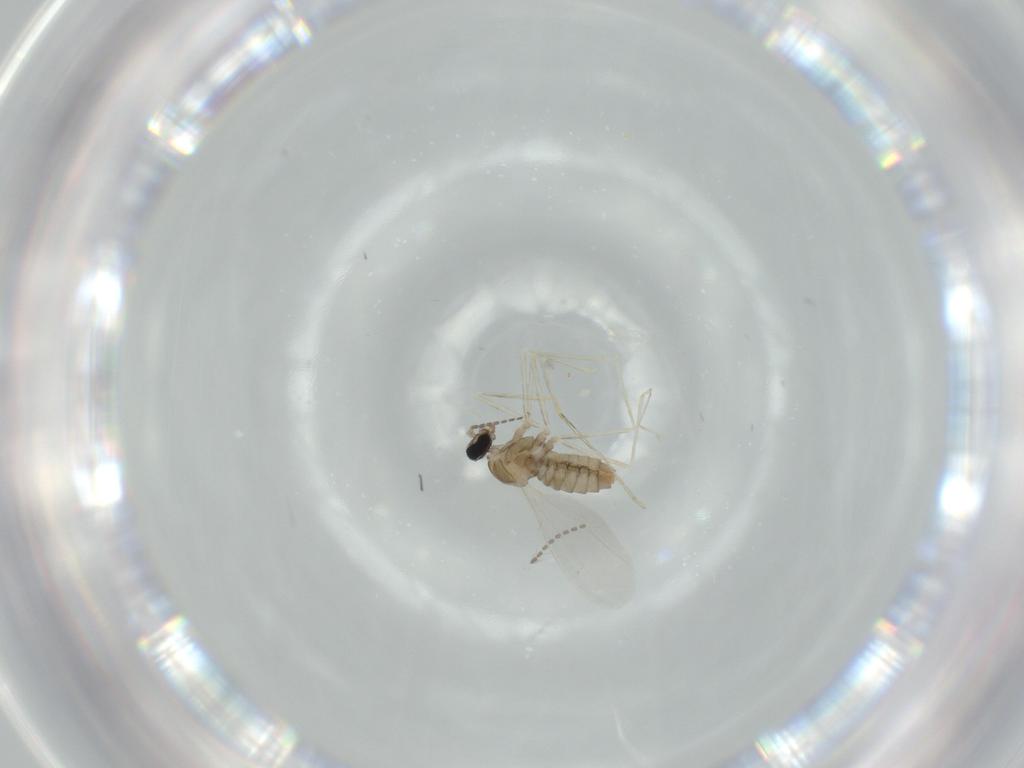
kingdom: Animalia
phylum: Arthropoda
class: Insecta
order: Diptera
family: Cecidomyiidae
